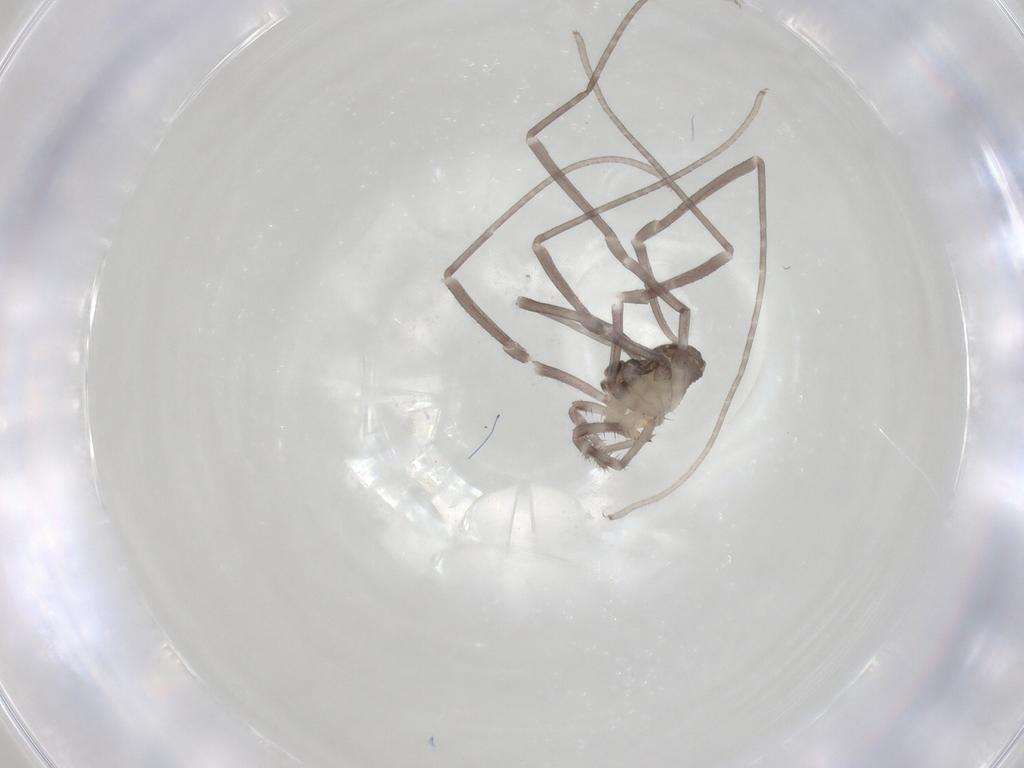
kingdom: Animalia
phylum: Arthropoda
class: Arachnida
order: Opiliones
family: Sclerosomatidae
